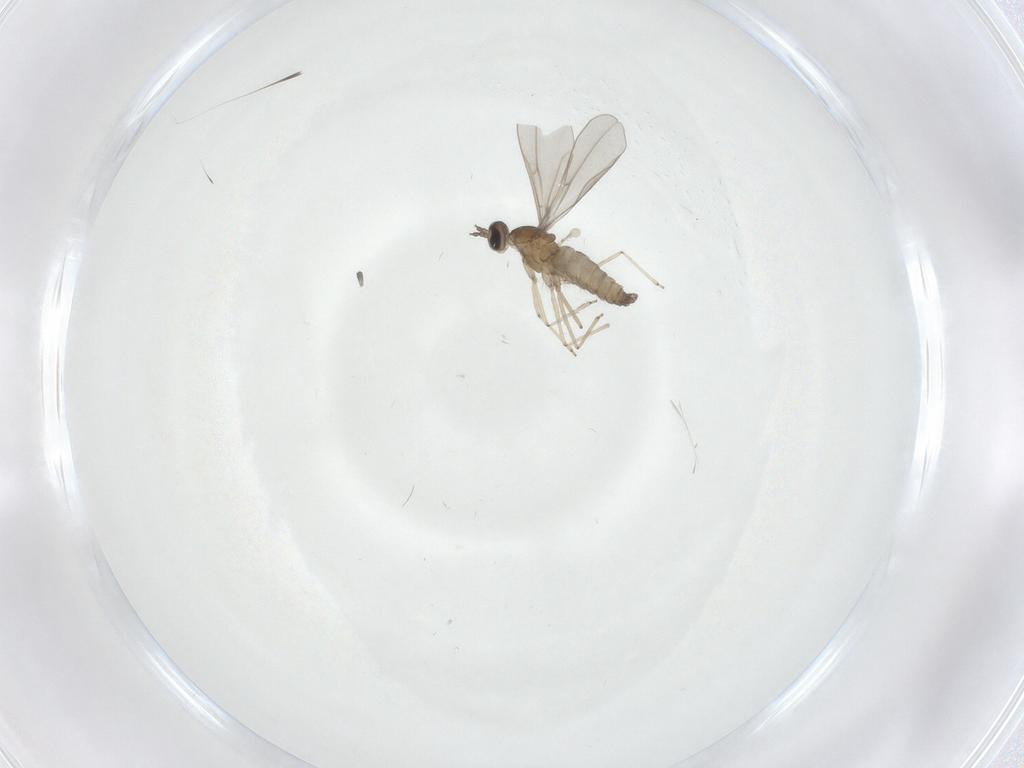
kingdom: Animalia
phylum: Arthropoda
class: Insecta
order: Diptera
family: Cecidomyiidae
